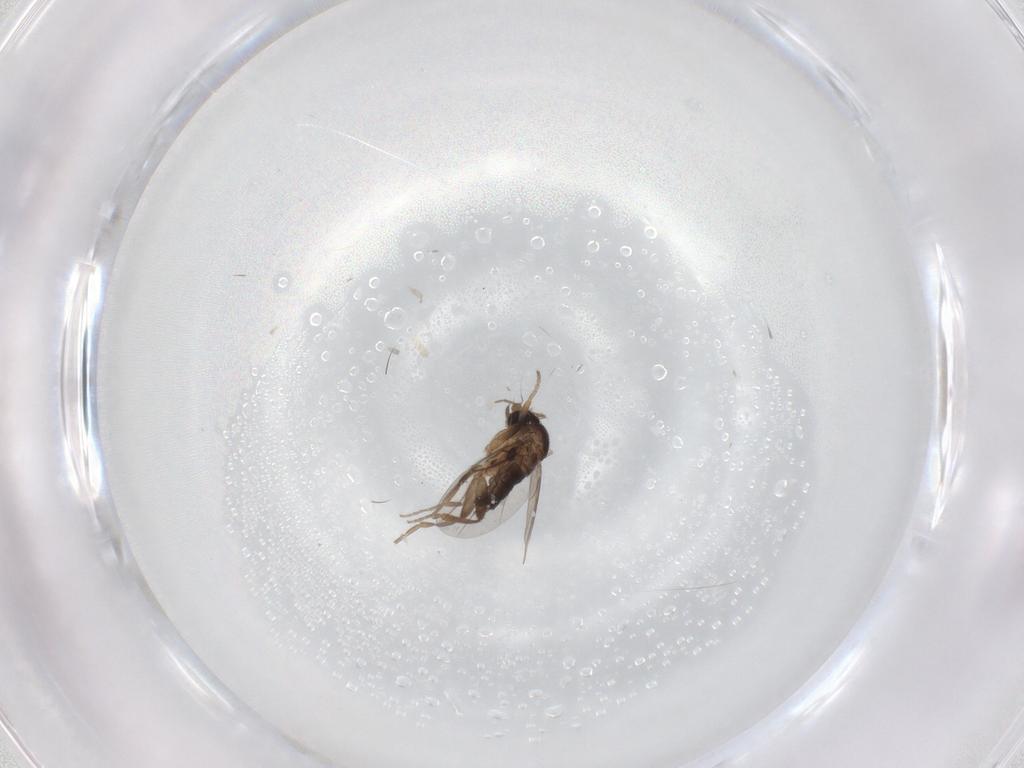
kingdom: Animalia
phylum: Arthropoda
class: Insecta
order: Diptera
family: Phoridae
